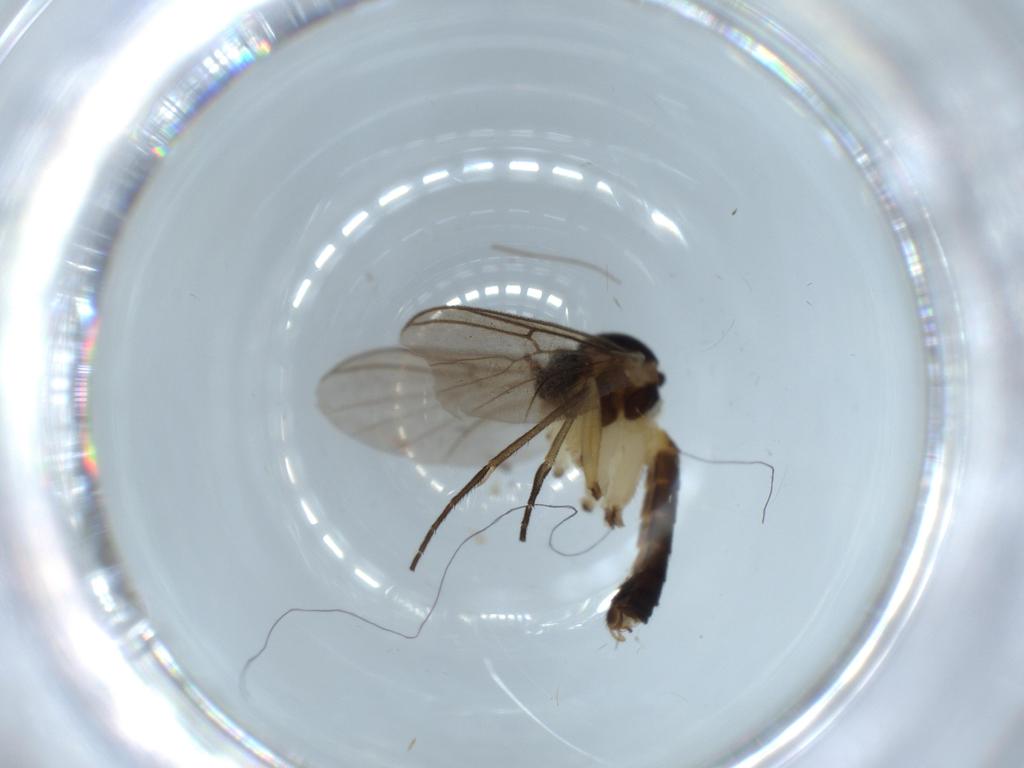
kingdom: Animalia
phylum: Arthropoda
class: Insecta
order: Diptera
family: Mycetophilidae
